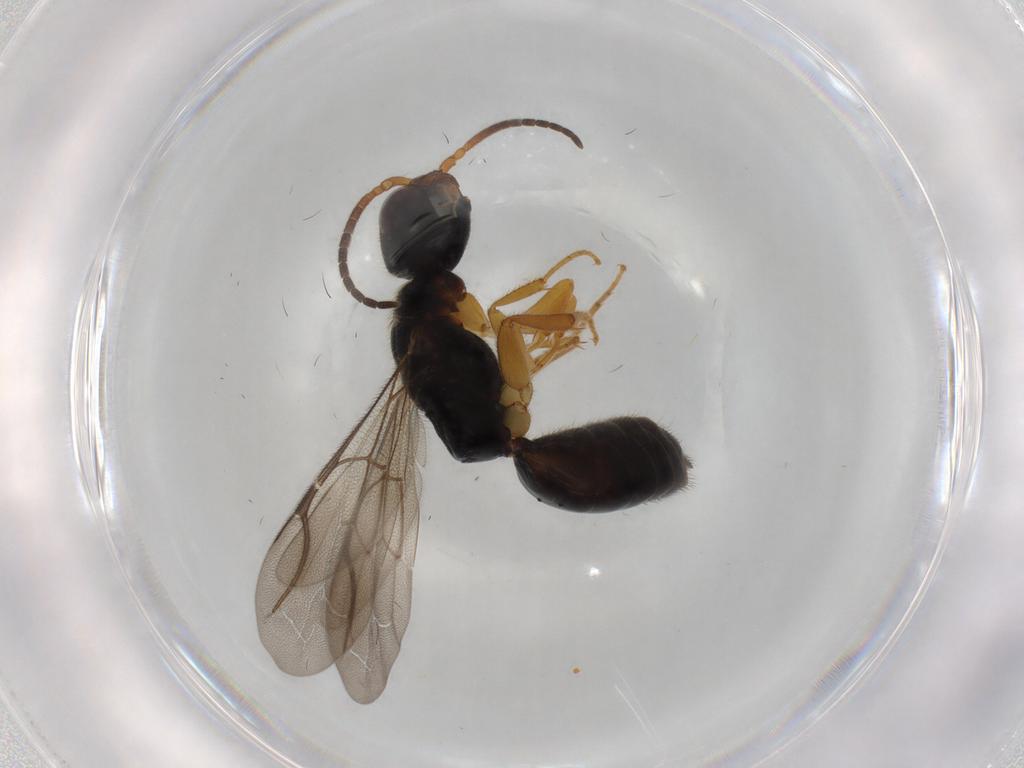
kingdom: Animalia
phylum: Arthropoda
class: Insecta
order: Hymenoptera
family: Bethylidae
